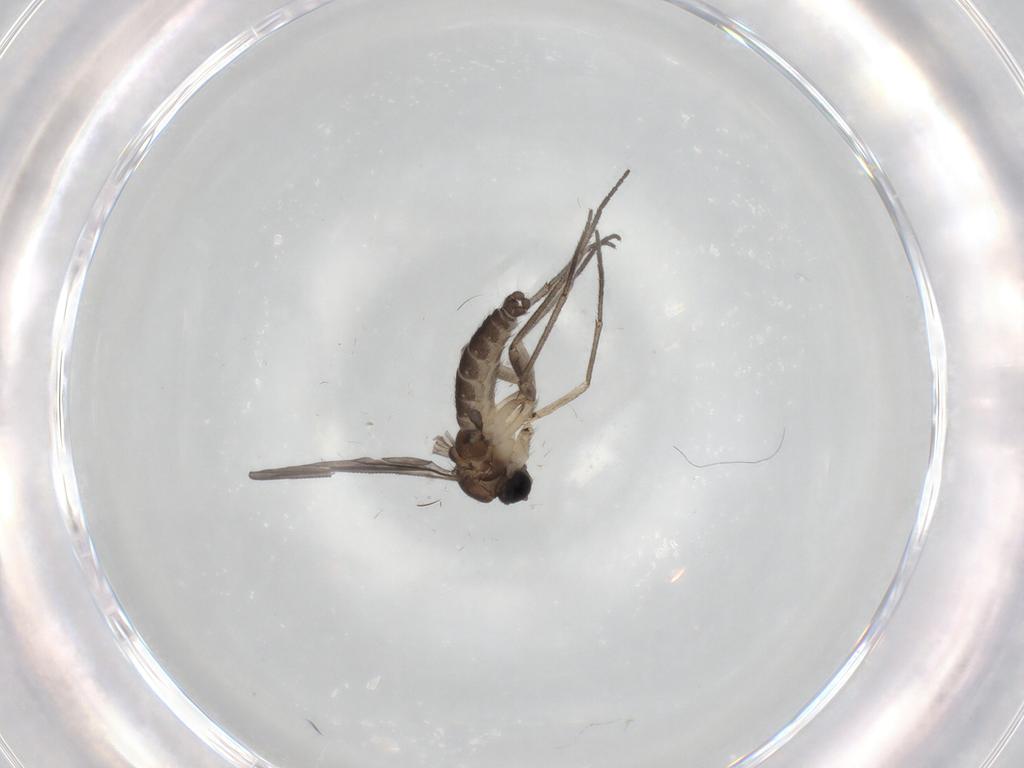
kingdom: Animalia
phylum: Arthropoda
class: Insecta
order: Diptera
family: Sciaridae
